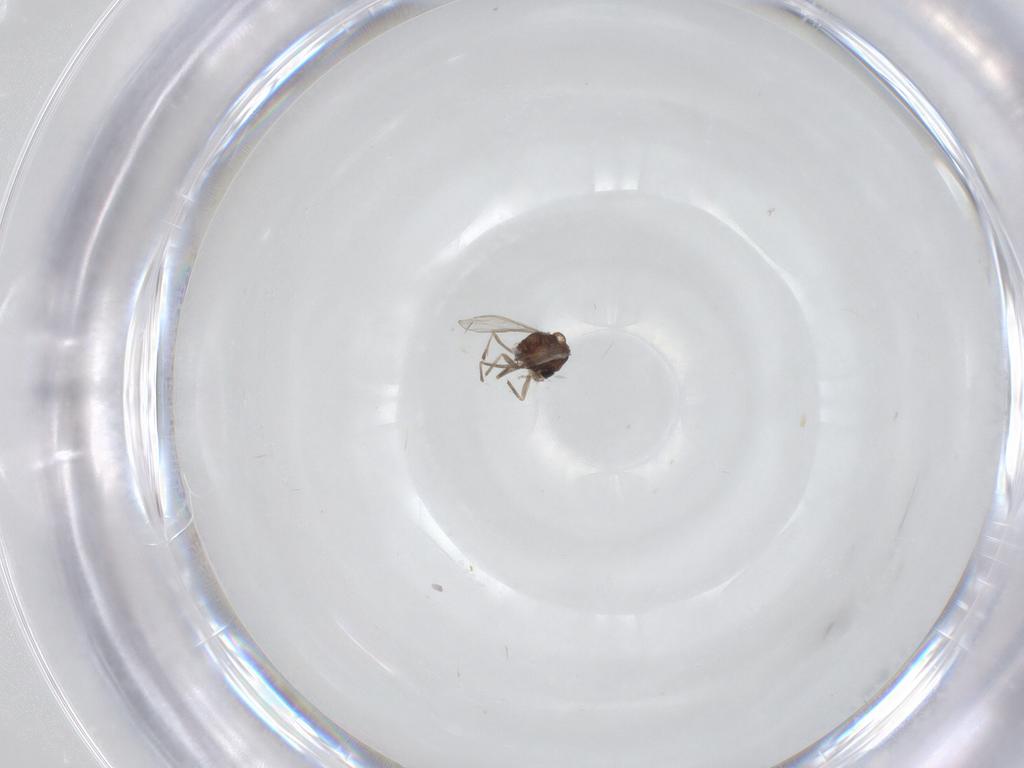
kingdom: Animalia
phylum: Arthropoda
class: Insecta
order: Diptera
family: Chironomidae
